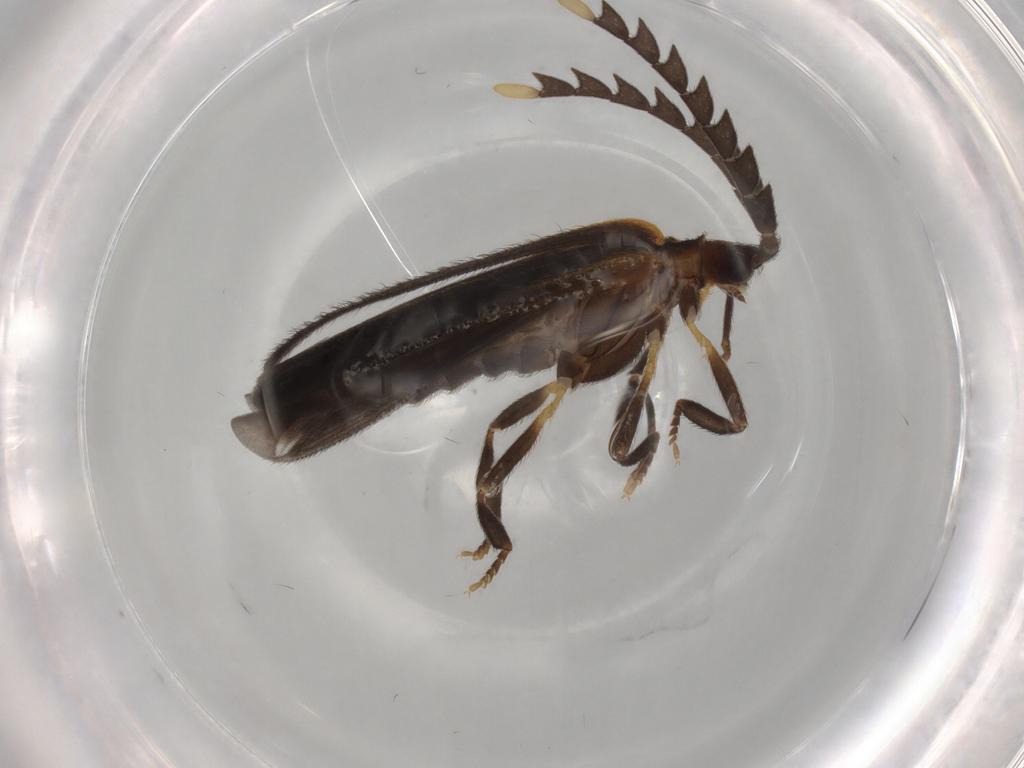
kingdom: Animalia
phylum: Arthropoda
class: Insecta
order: Coleoptera
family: Lycidae
